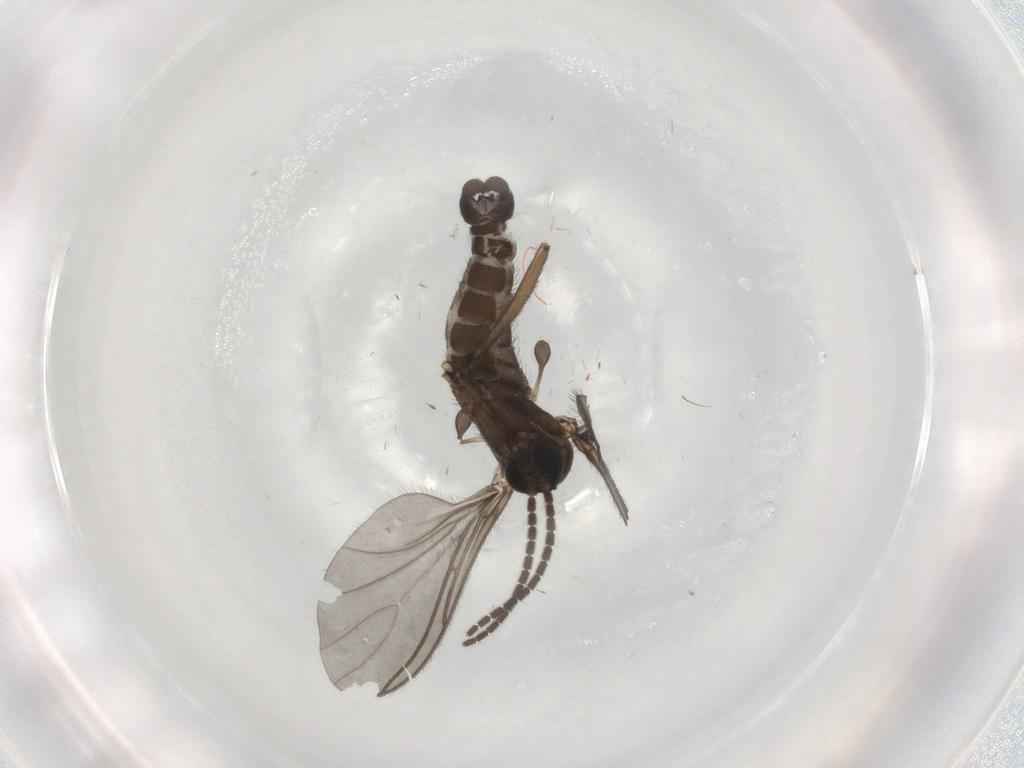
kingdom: Animalia
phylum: Arthropoda
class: Insecta
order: Diptera
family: Sciaridae
